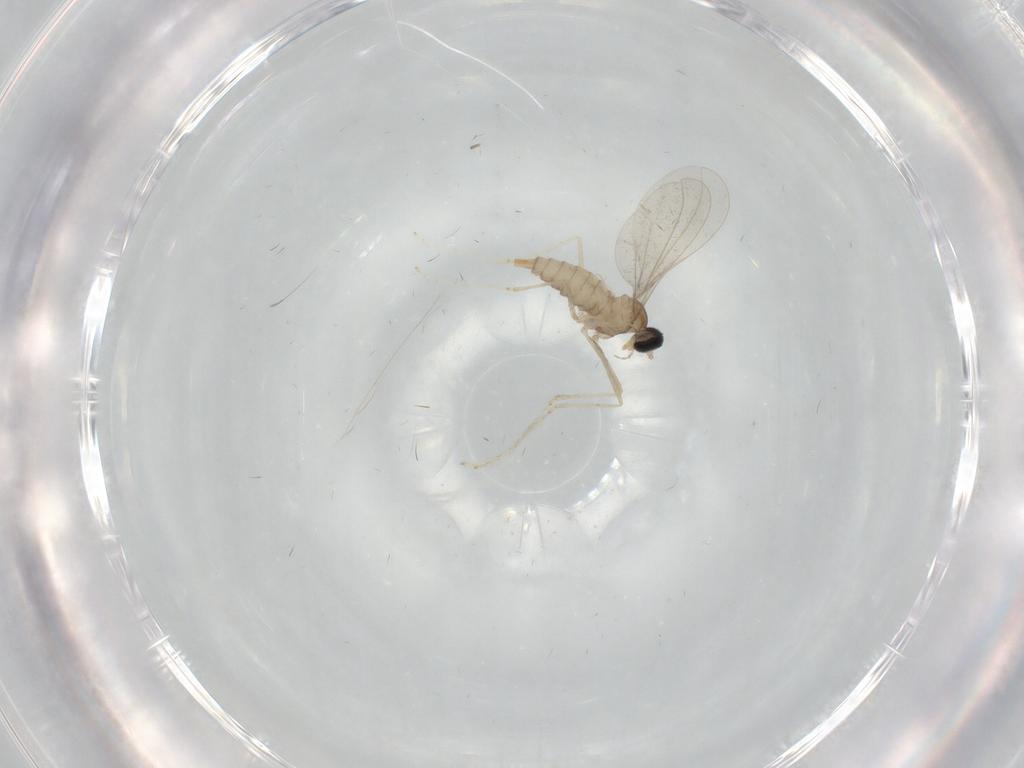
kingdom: Animalia
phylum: Arthropoda
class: Insecta
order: Diptera
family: Cecidomyiidae
